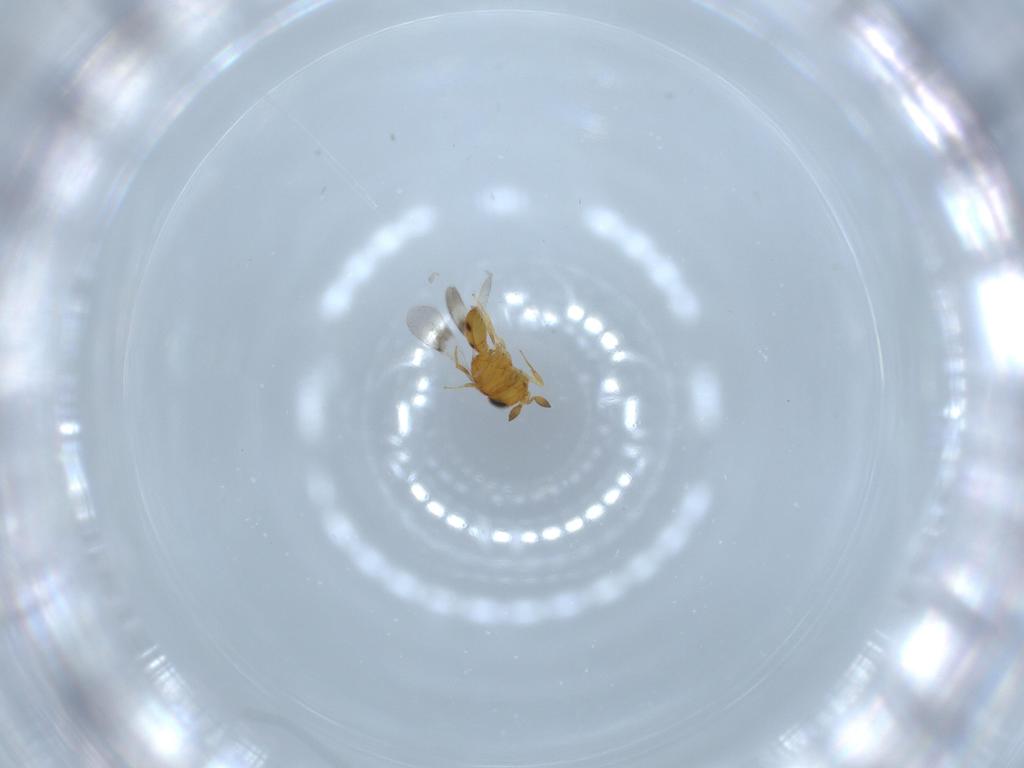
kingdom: Animalia
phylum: Arthropoda
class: Insecta
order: Hymenoptera
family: Scelionidae
